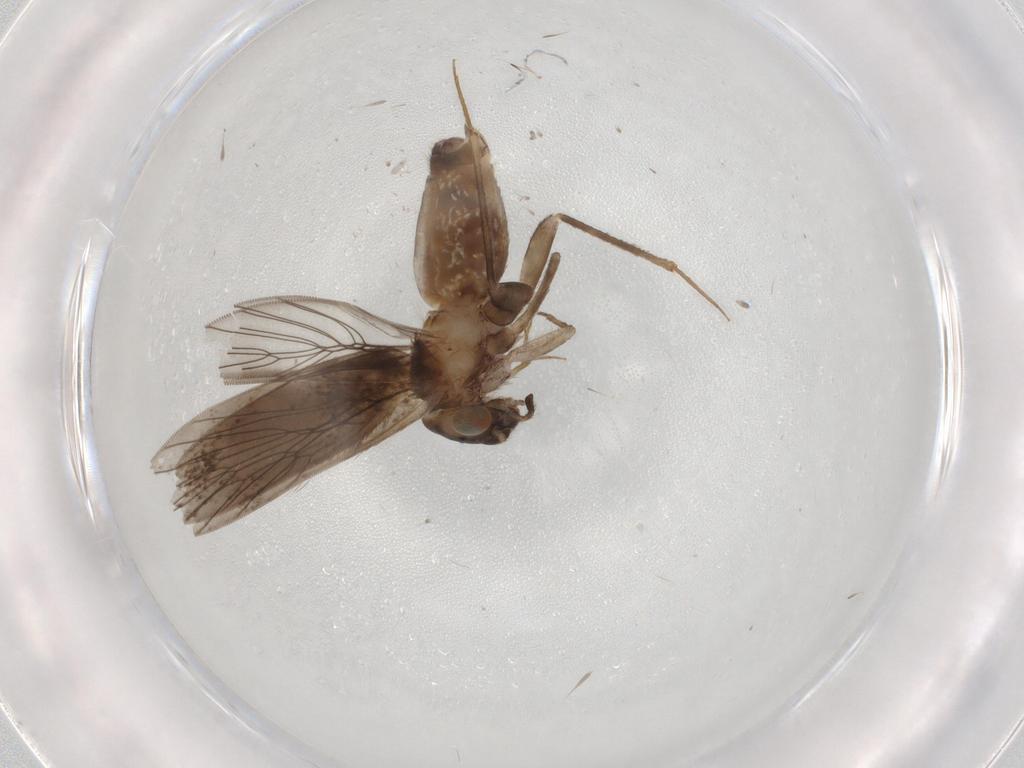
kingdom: Animalia
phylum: Arthropoda
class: Insecta
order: Psocodea
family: Lepidopsocidae
